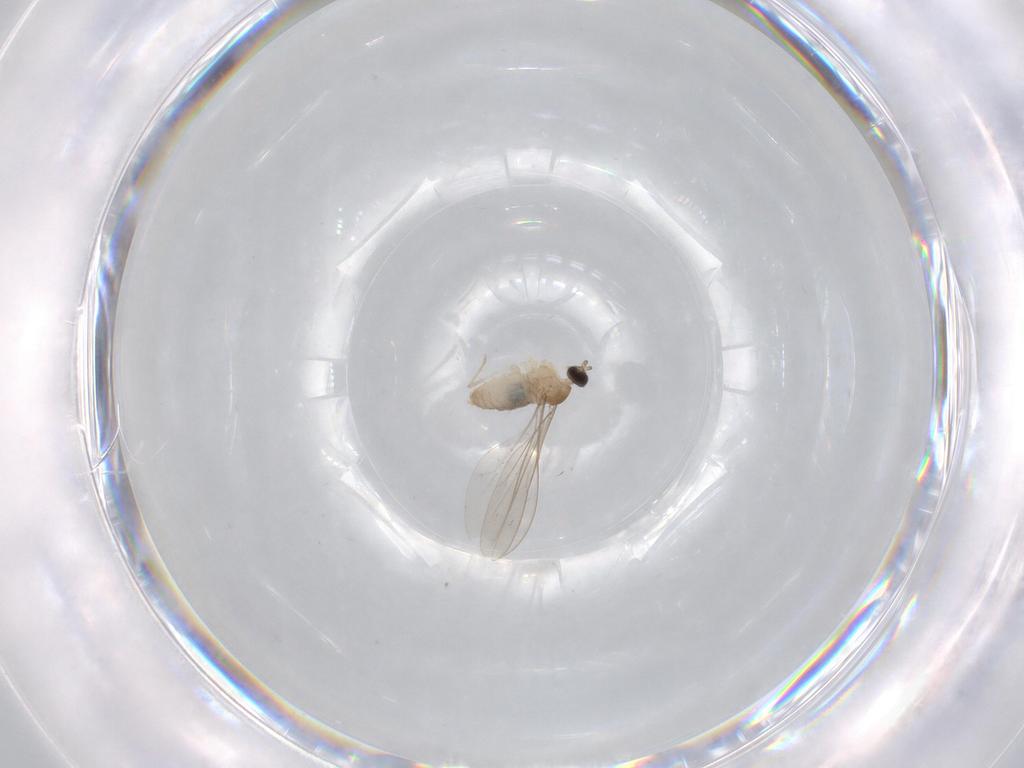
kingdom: Animalia
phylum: Arthropoda
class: Insecta
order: Diptera
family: Cecidomyiidae
